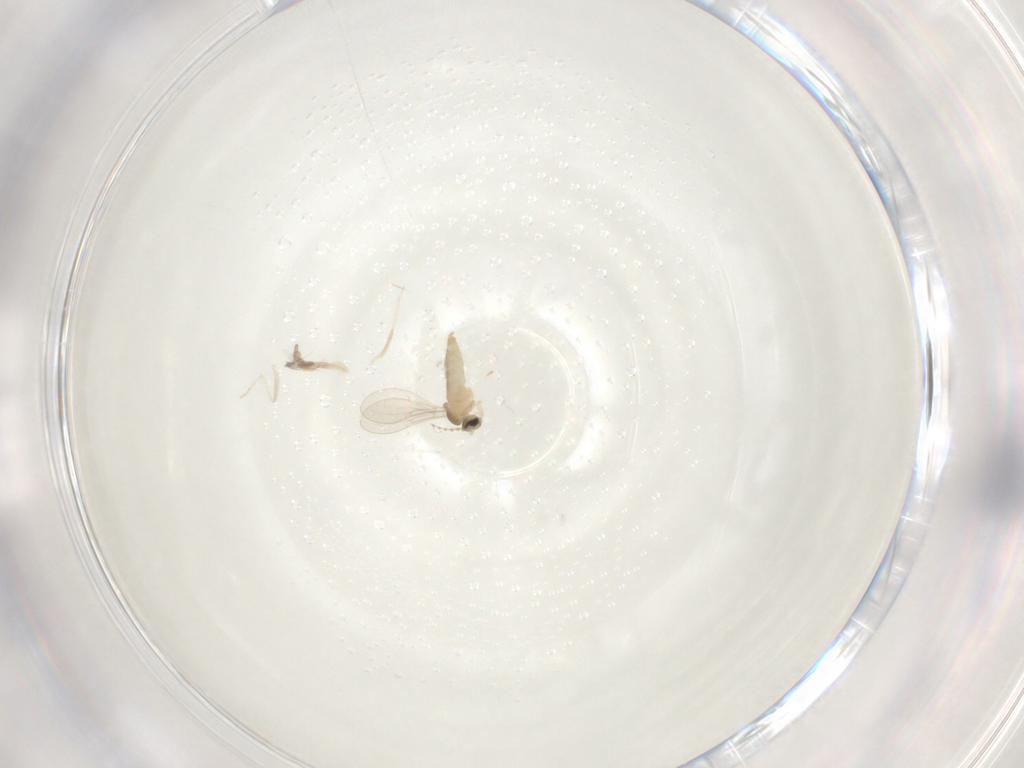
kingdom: Animalia
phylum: Arthropoda
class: Insecta
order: Diptera
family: Cecidomyiidae
